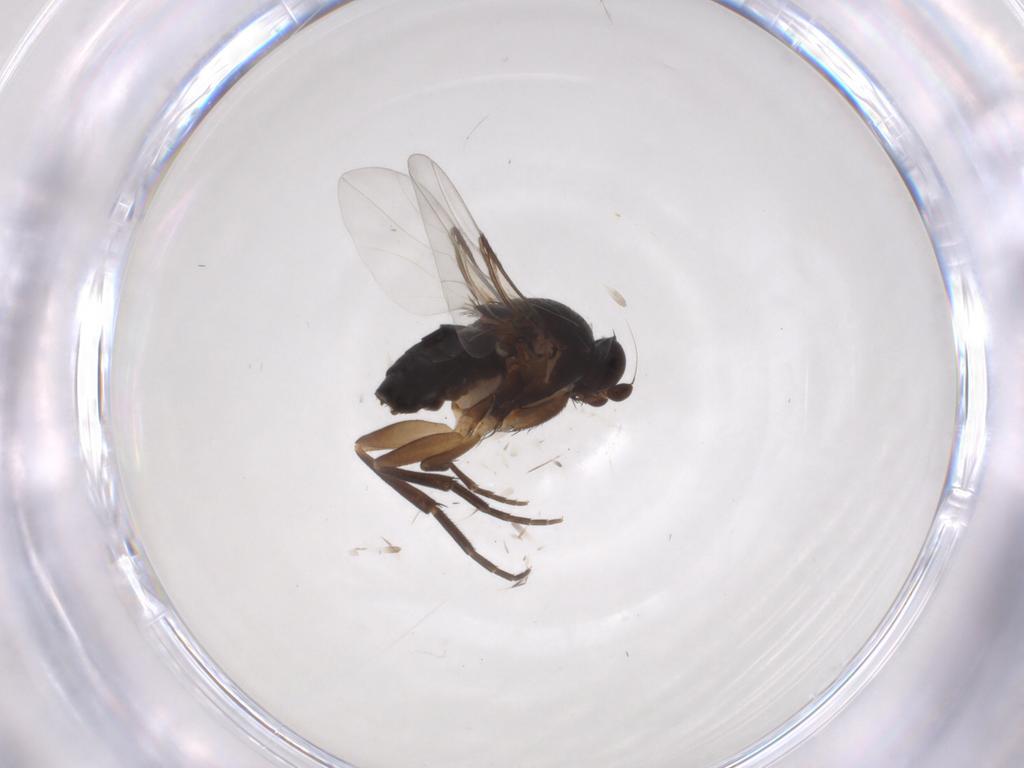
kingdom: Animalia
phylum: Arthropoda
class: Insecta
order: Diptera
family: Phoridae
